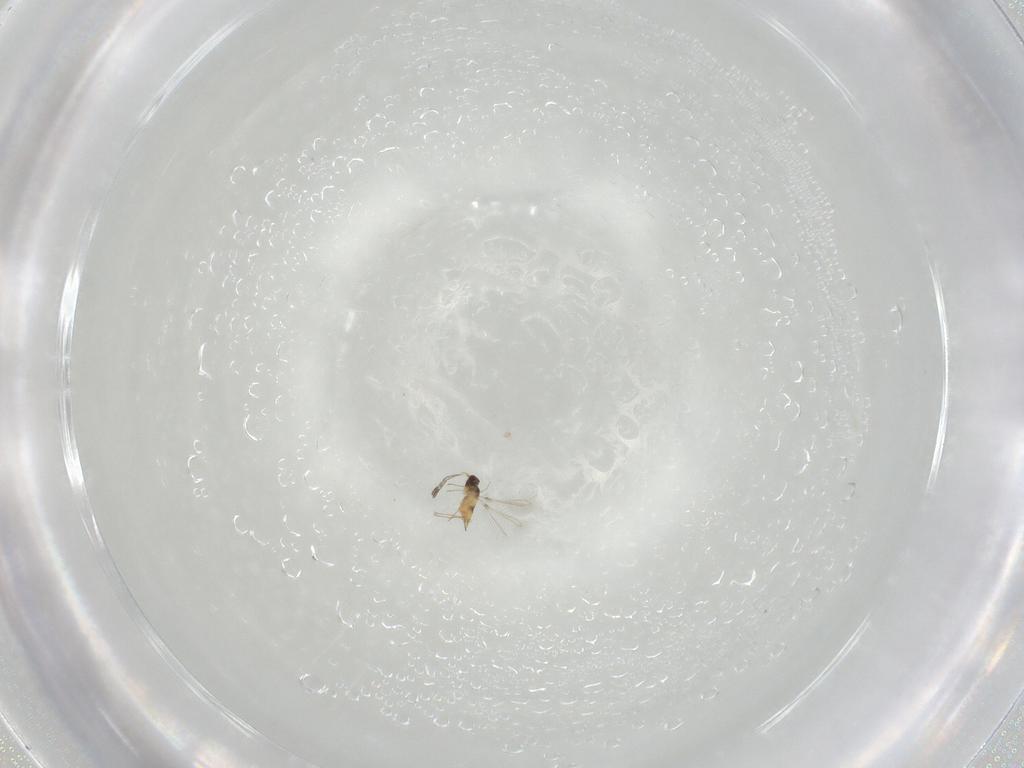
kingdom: Animalia
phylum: Arthropoda
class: Insecta
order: Hymenoptera
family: Mymaridae
